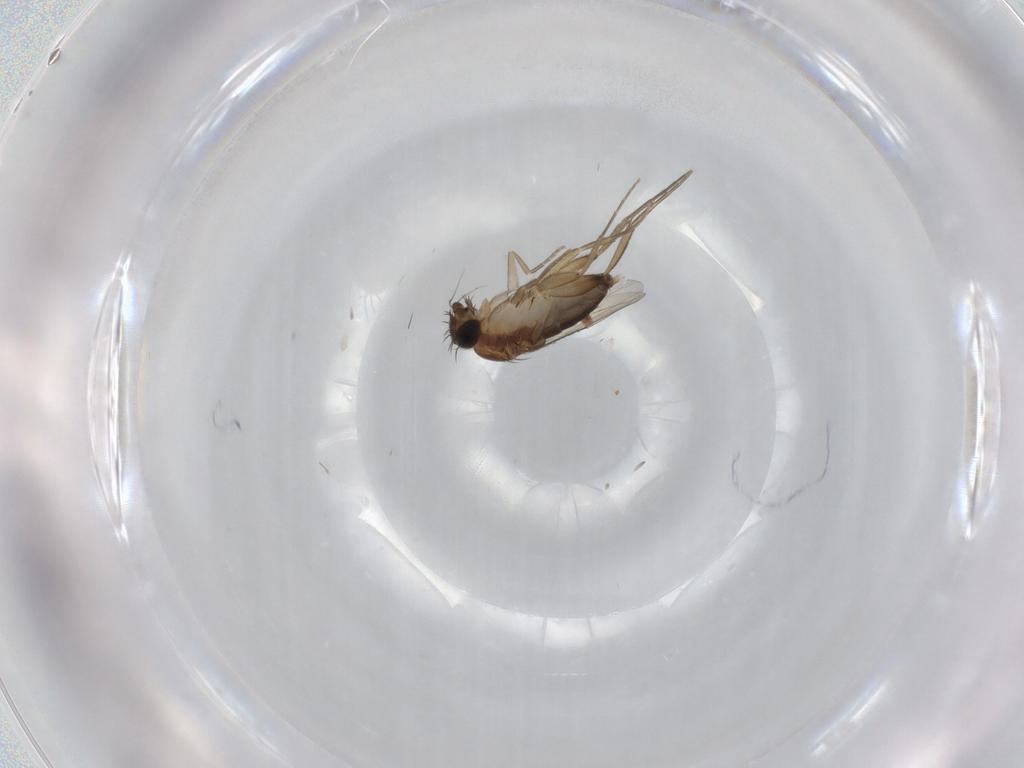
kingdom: Animalia
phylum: Arthropoda
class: Insecta
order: Diptera
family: Phoridae
